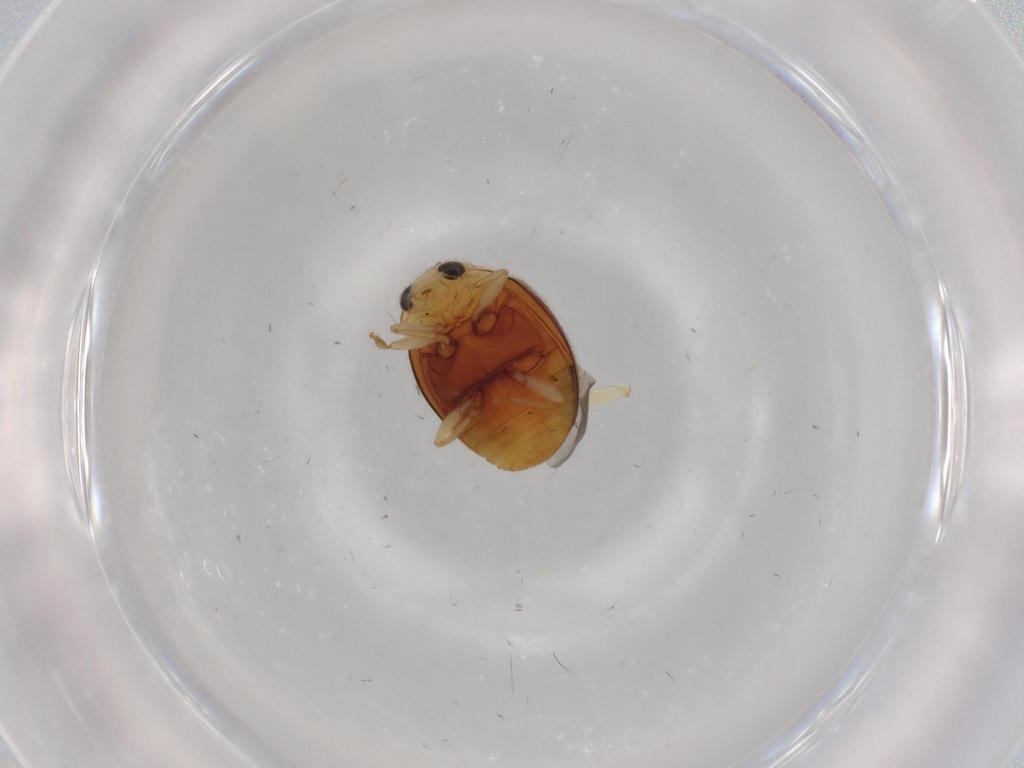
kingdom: Animalia
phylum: Arthropoda
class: Insecta
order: Coleoptera
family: Coccinellidae
